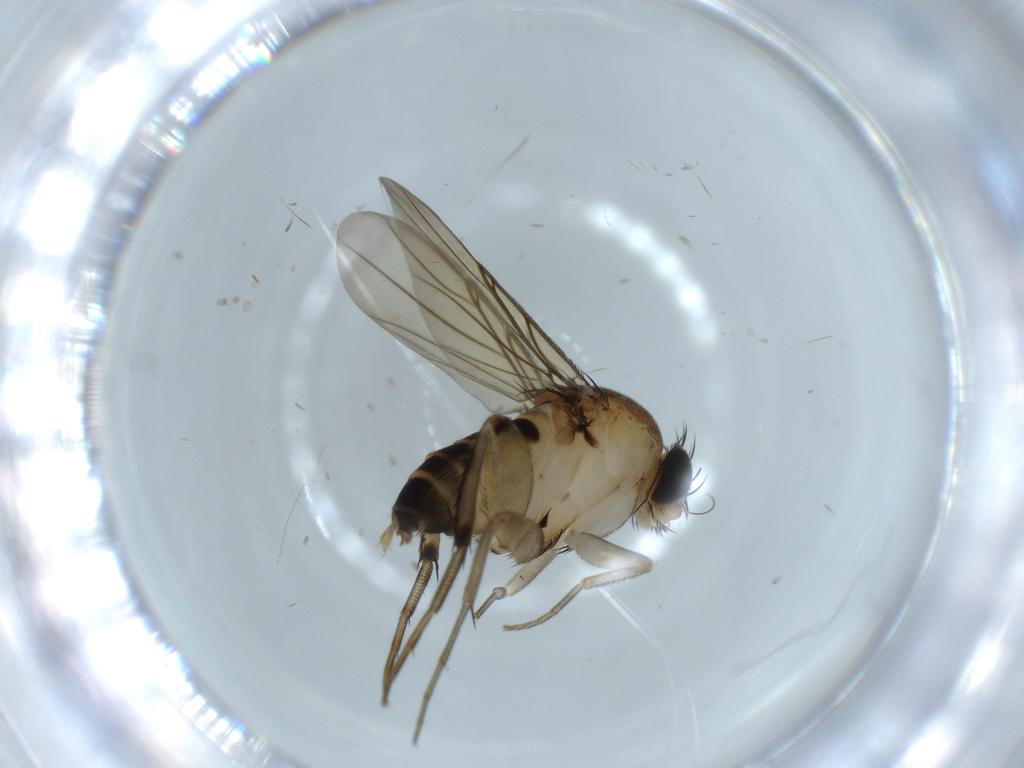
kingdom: Animalia
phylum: Arthropoda
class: Insecta
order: Diptera
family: Phoridae
